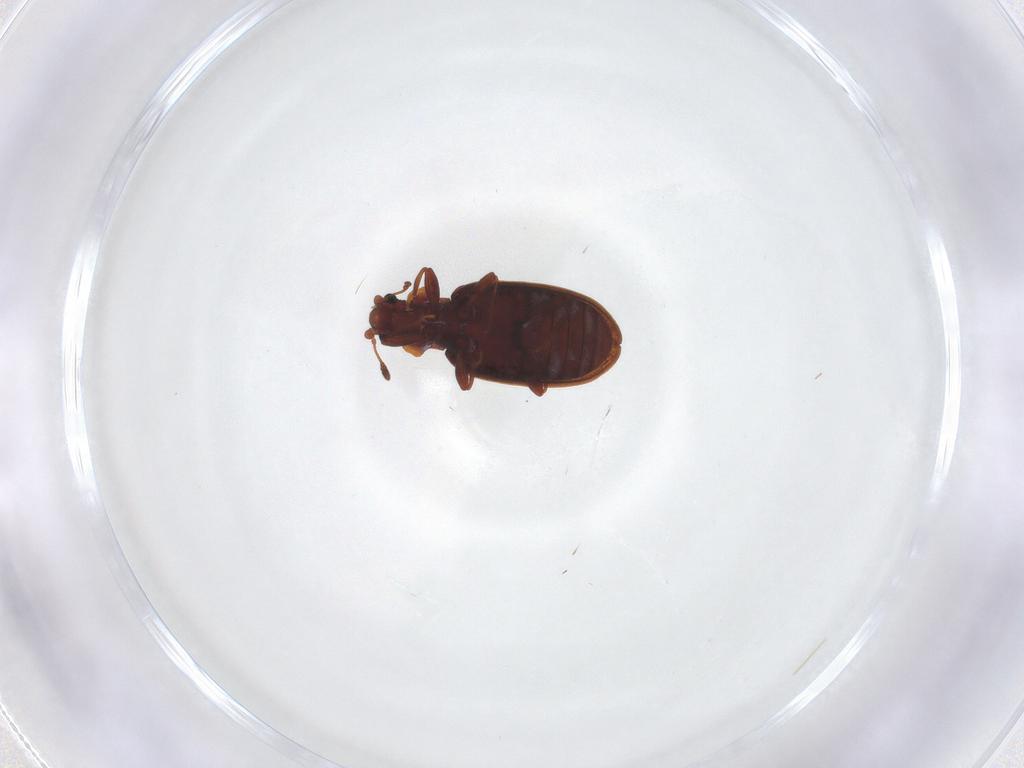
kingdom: Animalia
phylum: Arthropoda
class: Insecta
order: Coleoptera
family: Latridiidae
